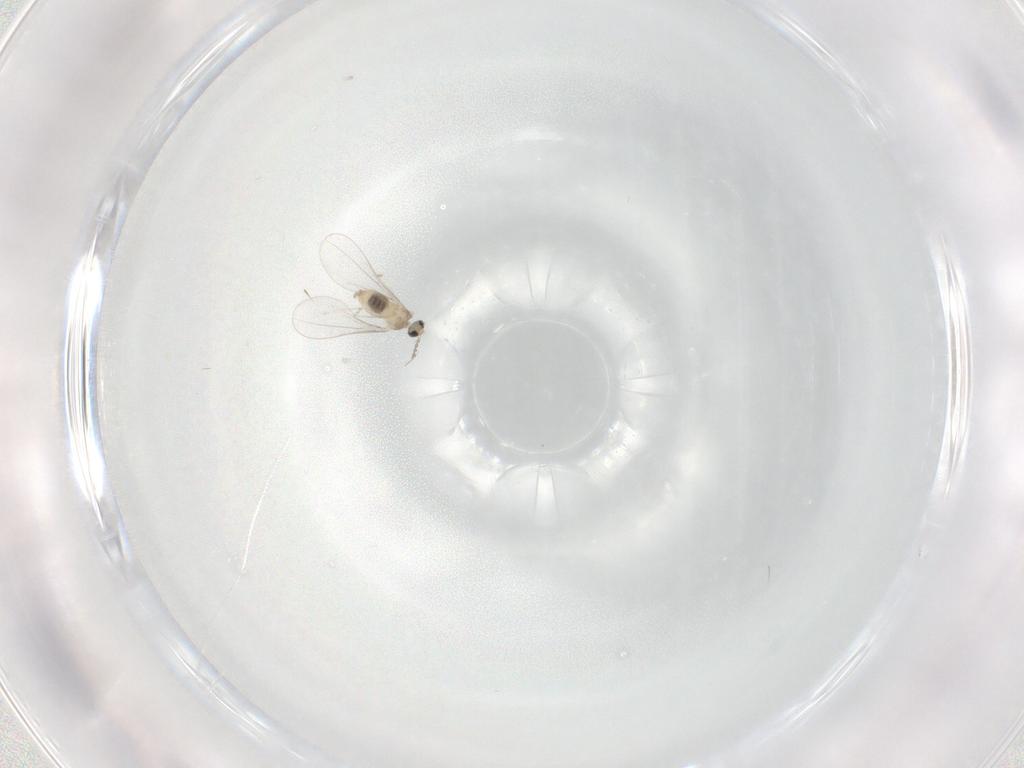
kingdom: Animalia
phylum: Arthropoda
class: Insecta
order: Diptera
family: Cecidomyiidae
